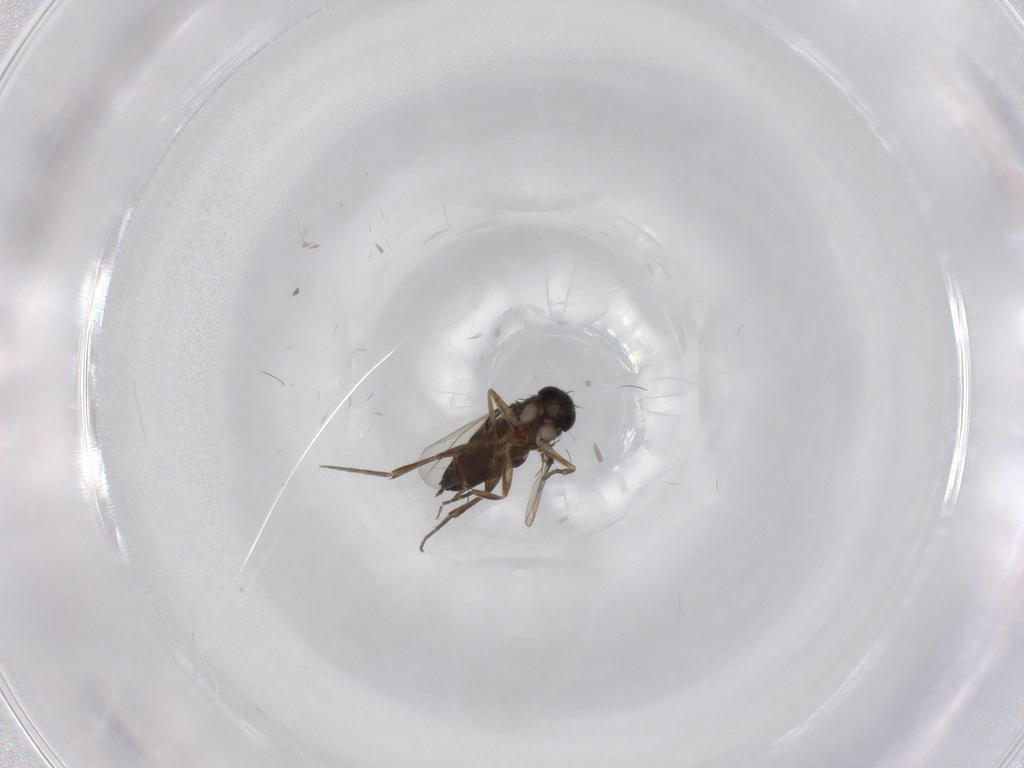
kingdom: Animalia
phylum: Arthropoda
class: Insecta
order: Diptera
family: Phoridae
